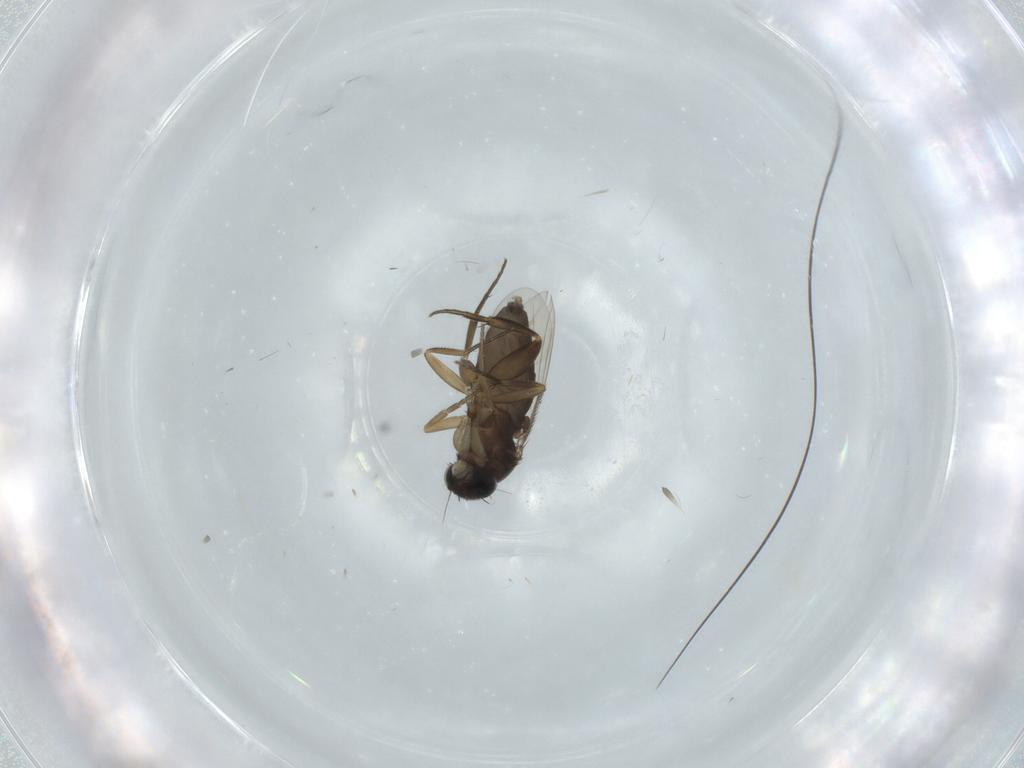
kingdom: Animalia
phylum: Arthropoda
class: Insecta
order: Diptera
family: Phoridae
